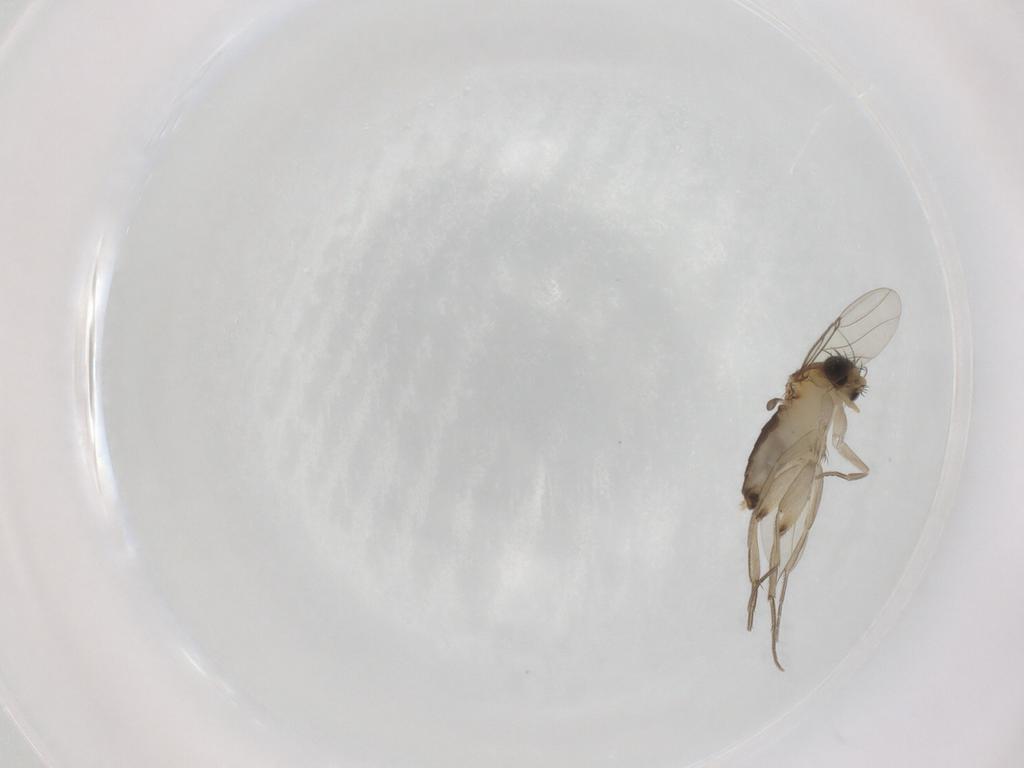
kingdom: Animalia
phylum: Arthropoda
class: Insecta
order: Diptera
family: Phoridae
